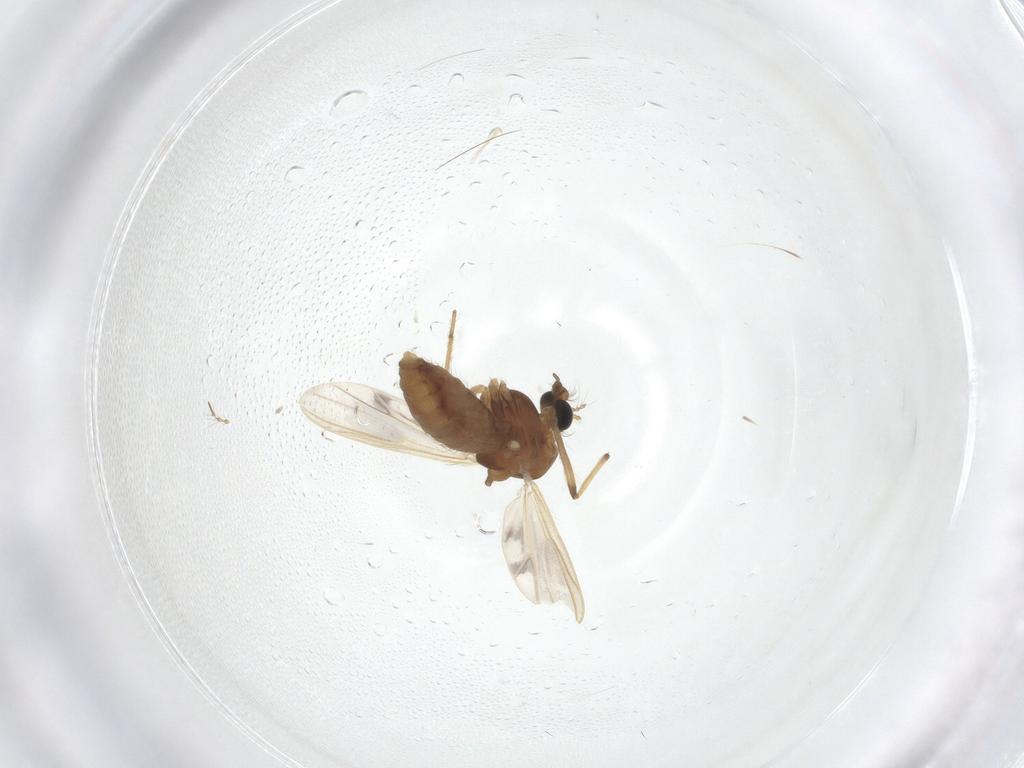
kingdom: Animalia
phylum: Arthropoda
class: Insecta
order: Diptera
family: Chironomidae
